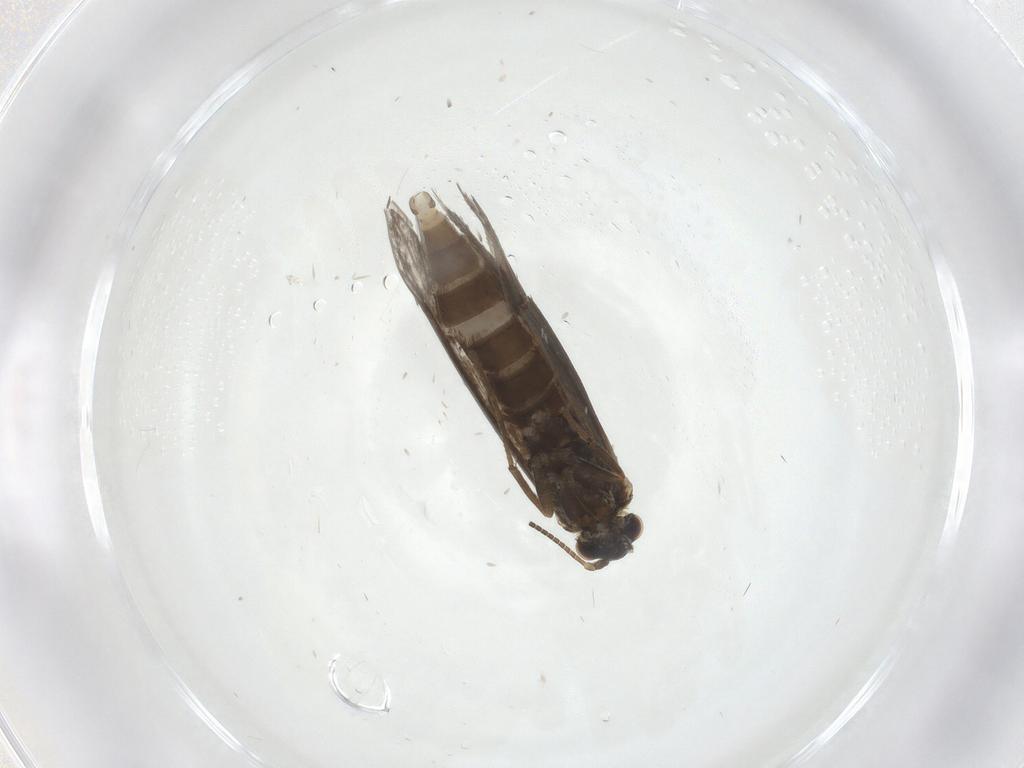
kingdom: Animalia
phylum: Arthropoda
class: Insecta
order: Lepidoptera
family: Micropterigidae
